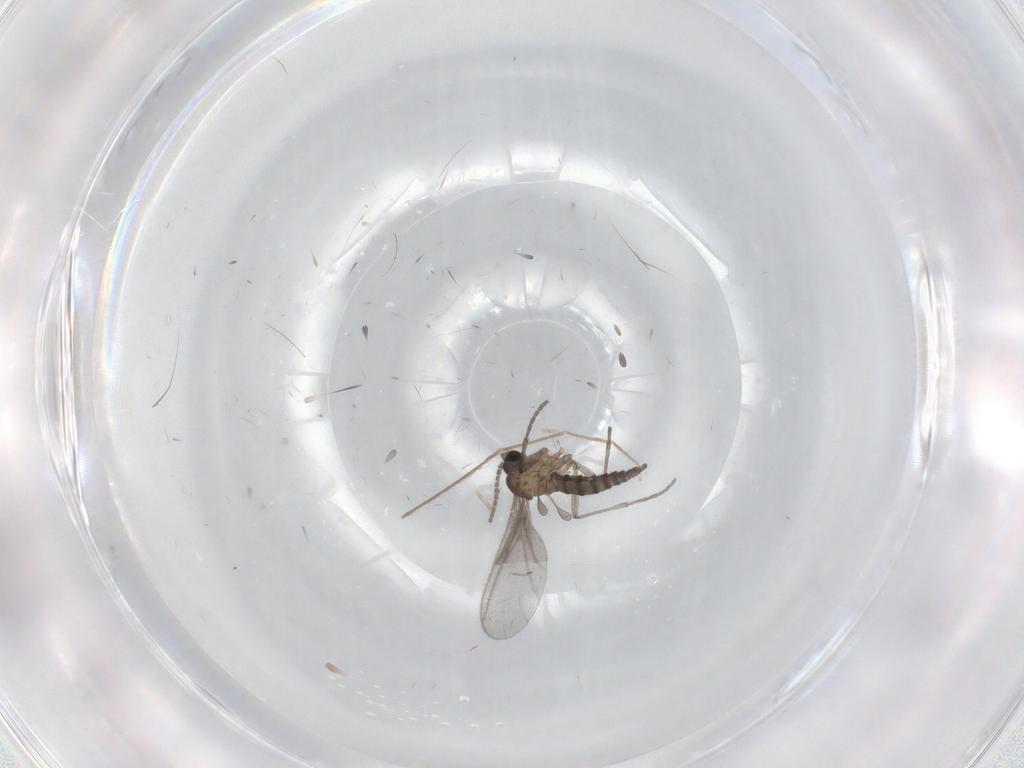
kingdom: Animalia
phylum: Arthropoda
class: Insecta
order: Diptera
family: Sciaridae
